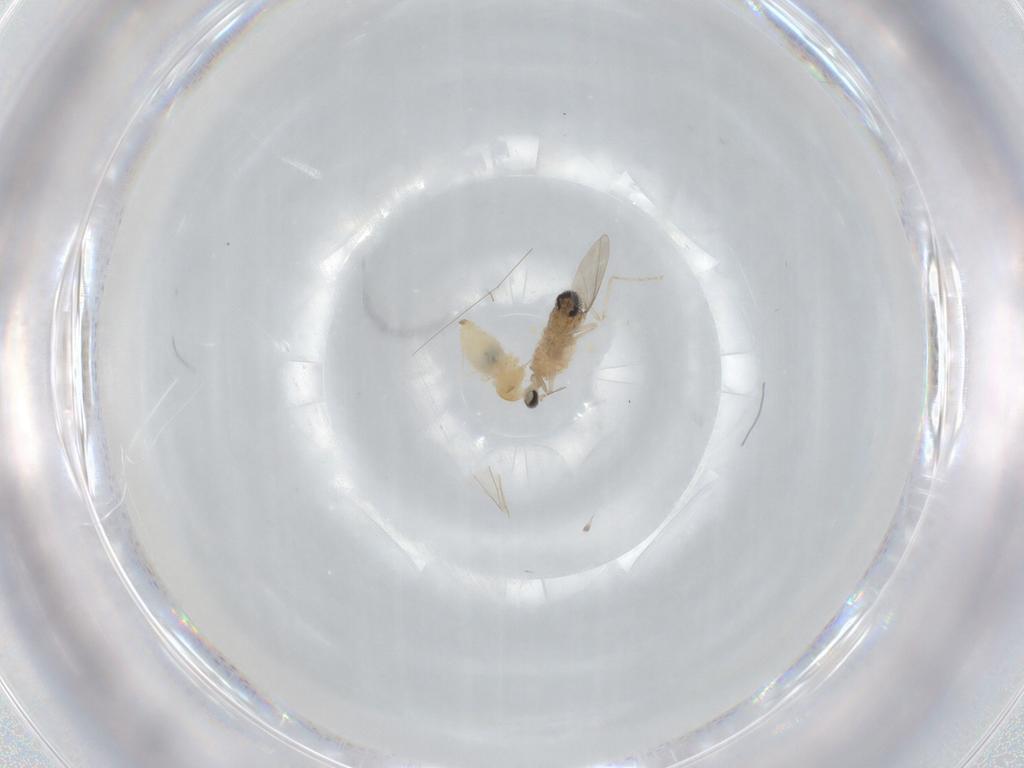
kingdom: Animalia
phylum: Arthropoda
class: Insecta
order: Diptera
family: Cecidomyiidae
